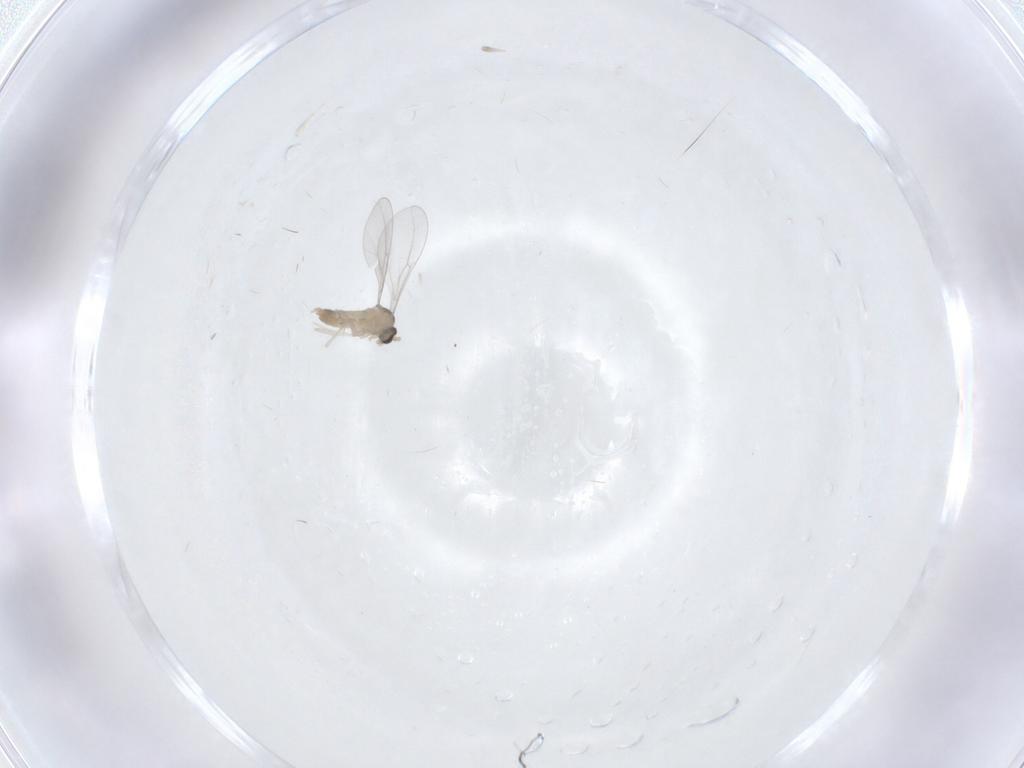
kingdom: Animalia
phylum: Arthropoda
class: Insecta
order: Diptera
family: Cecidomyiidae
